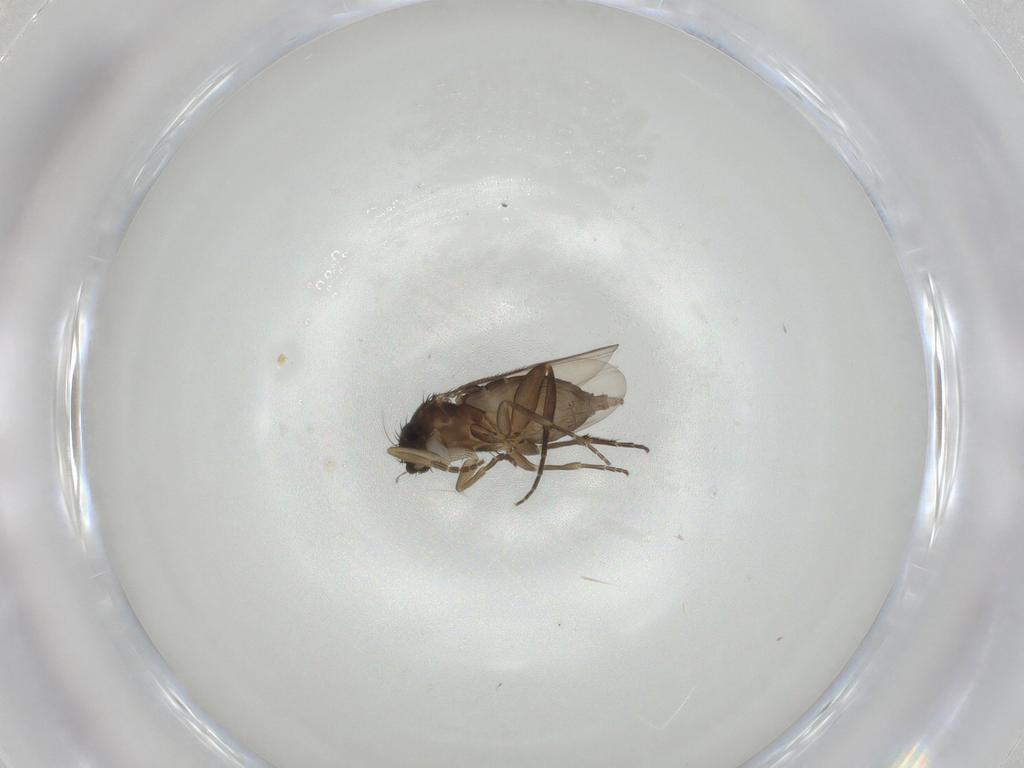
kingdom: Animalia
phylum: Arthropoda
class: Insecta
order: Diptera
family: Phoridae
